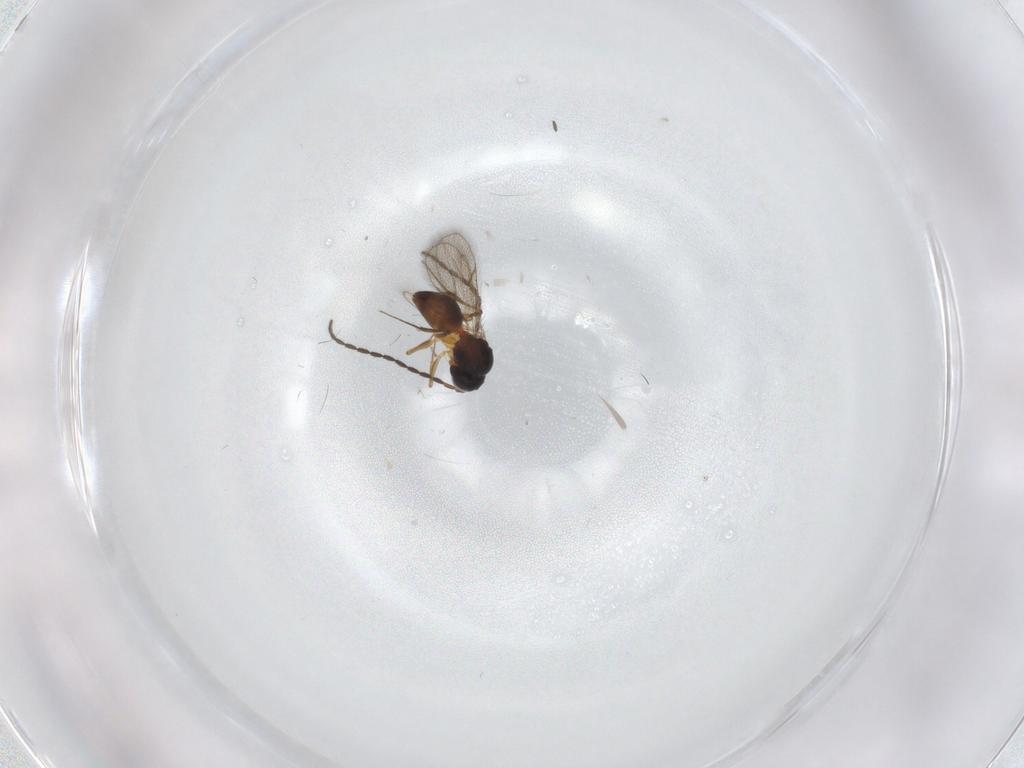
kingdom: Animalia
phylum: Arthropoda
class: Insecta
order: Hymenoptera
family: Figitidae
